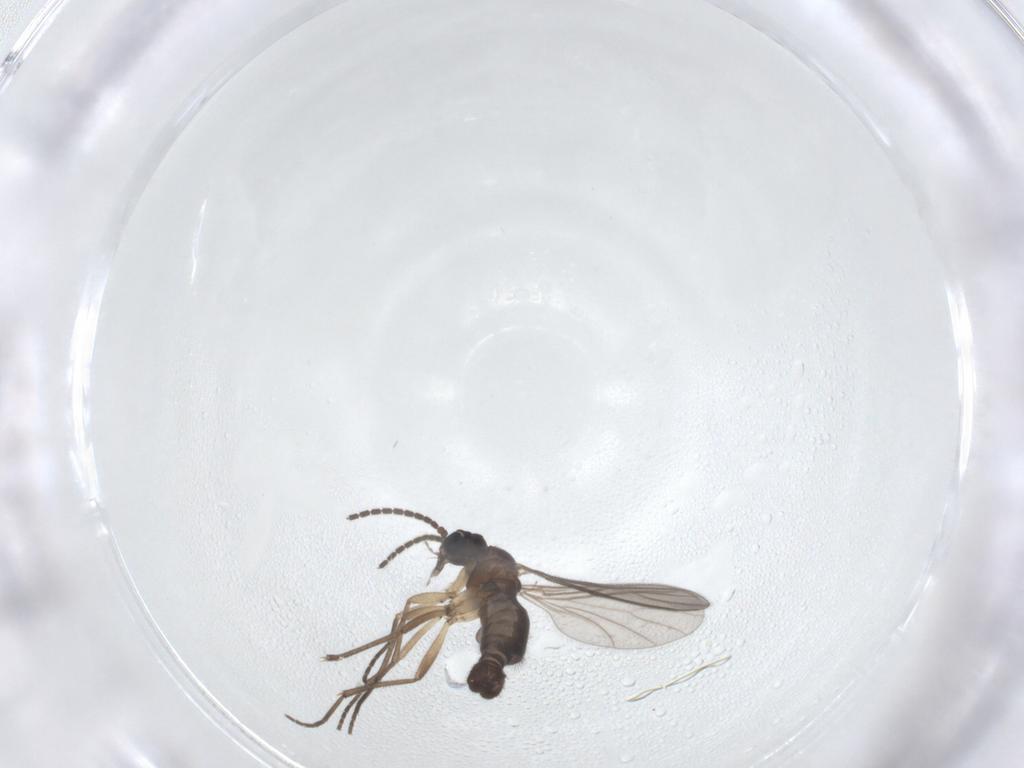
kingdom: Animalia
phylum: Arthropoda
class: Insecta
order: Diptera
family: Sciaridae
